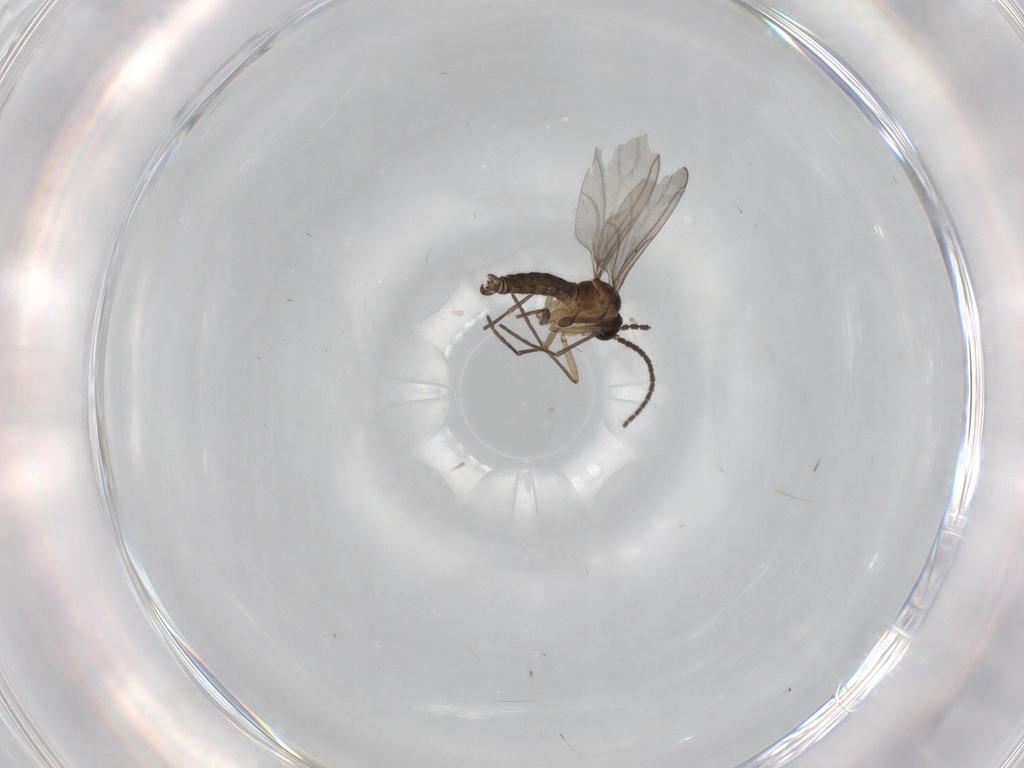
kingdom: Animalia
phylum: Arthropoda
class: Insecta
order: Diptera
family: Sciaridae
